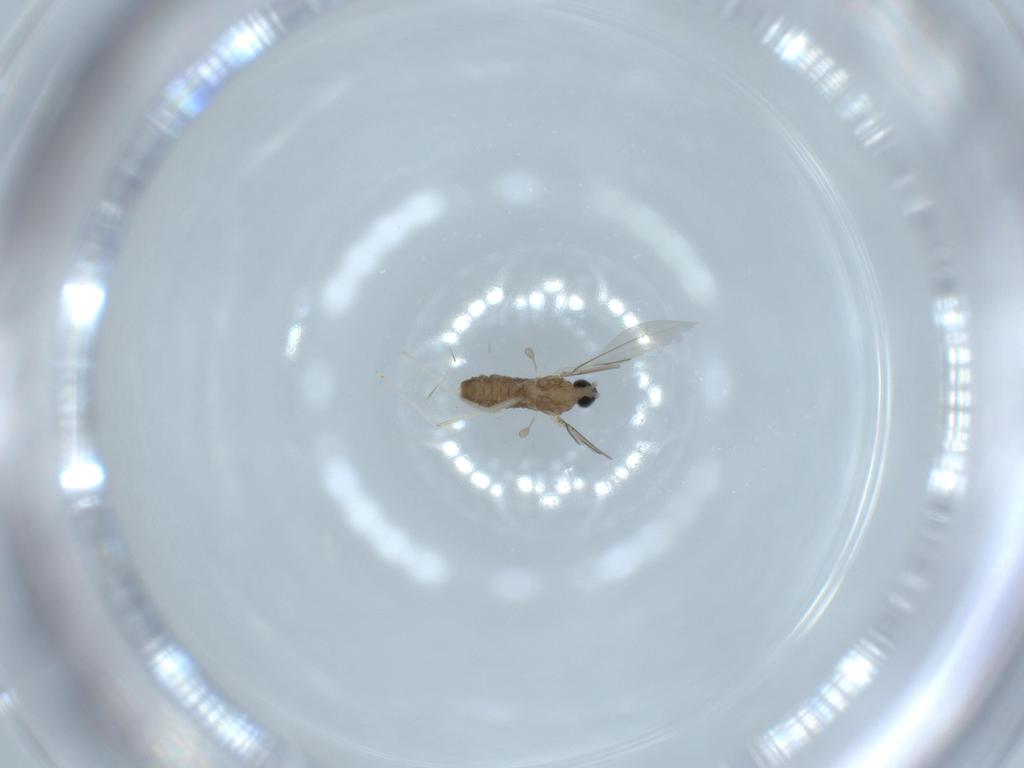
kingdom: Animalia
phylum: Arthropoda
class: Insecta
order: Diptera
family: Cecidomyiidae
